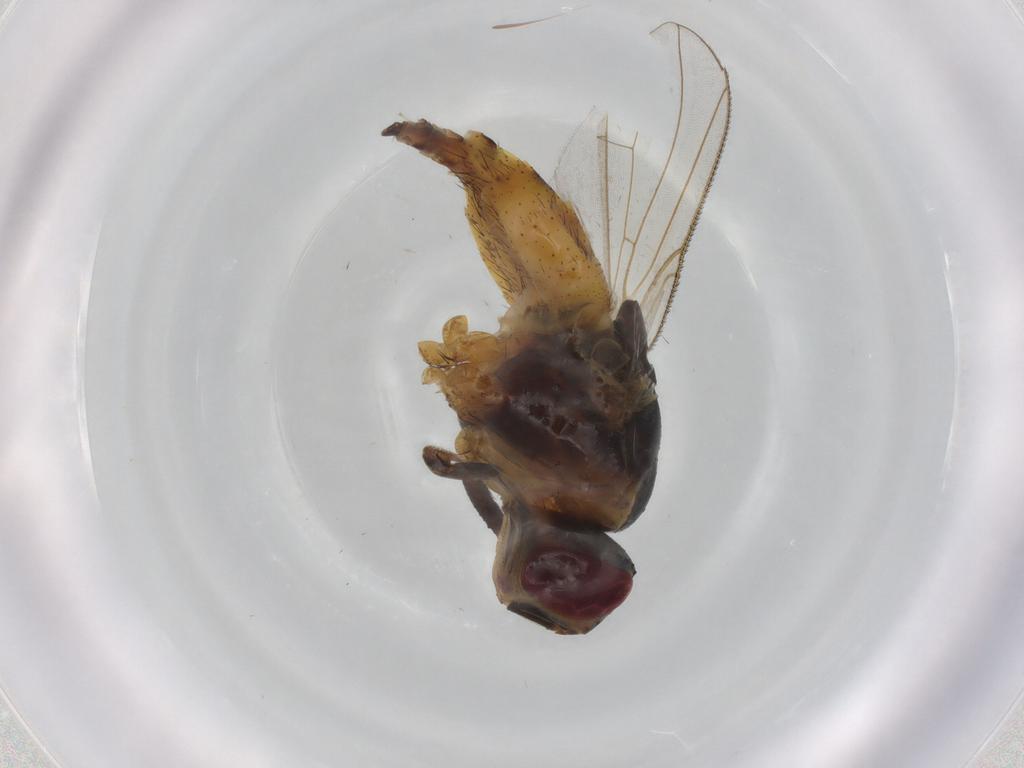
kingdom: Animalia
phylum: Arthropoda
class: Insecta
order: Diptera
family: Muscidae
